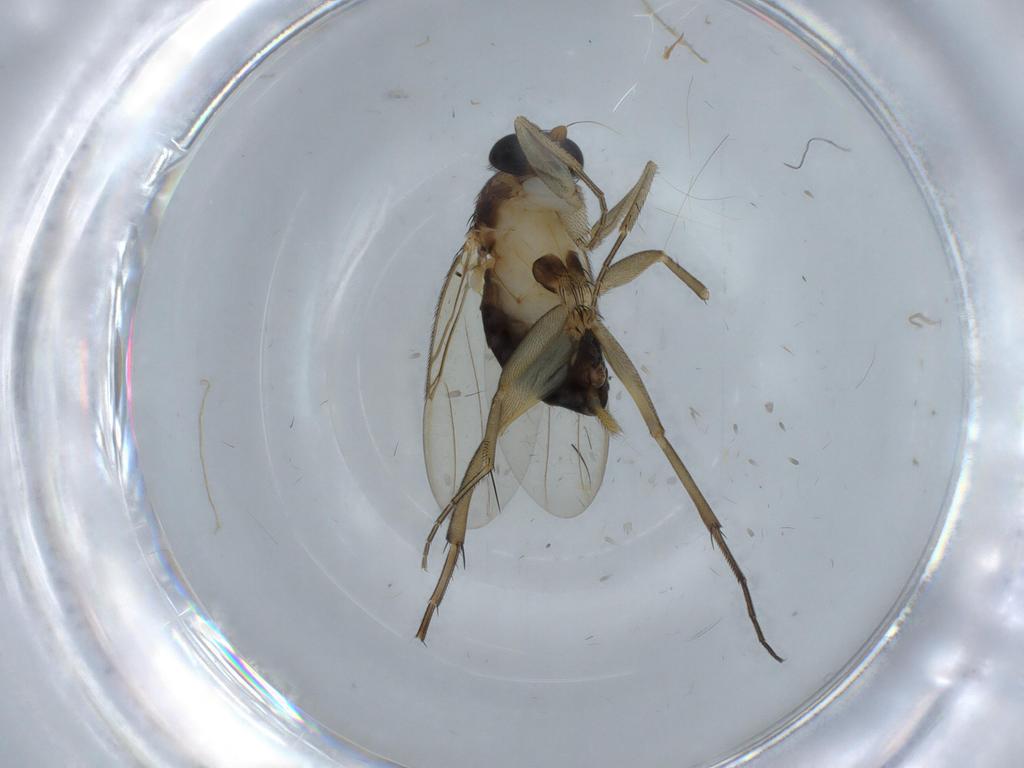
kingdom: Animalia
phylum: Arthropoda
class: Insecta
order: Diptera
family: Phoridae
